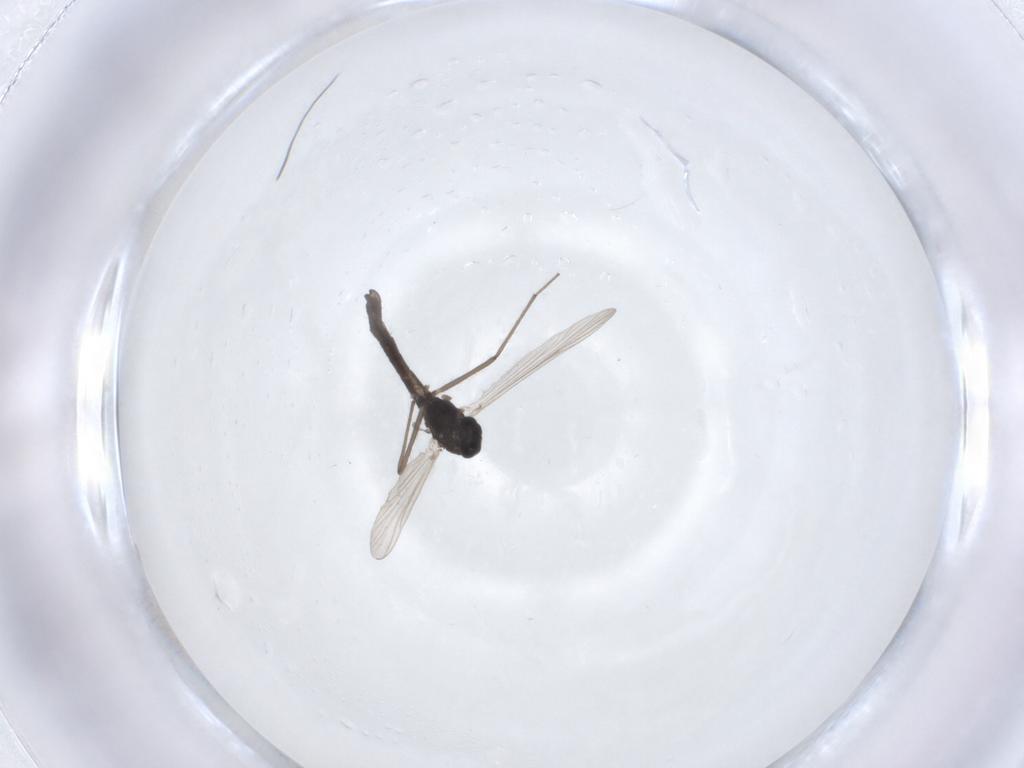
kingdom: Animalia
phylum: Arthropoda
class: Insecta
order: Diptera
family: Chironomidae
